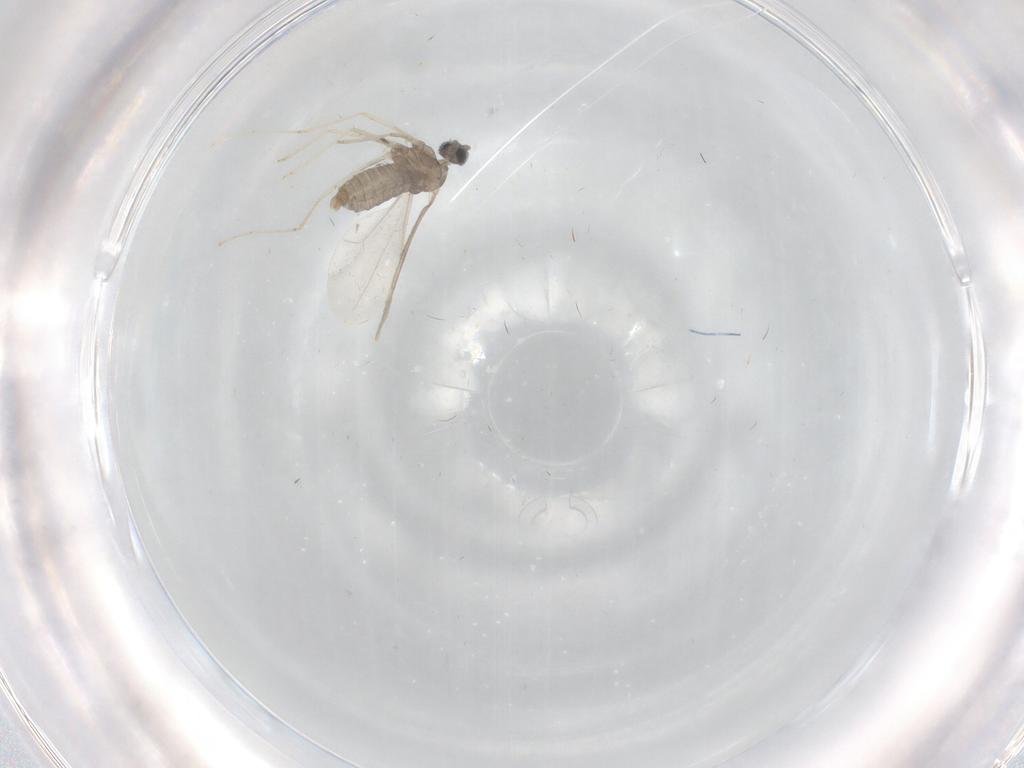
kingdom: Animalia
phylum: Arthropoda
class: Insecta
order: Diptera
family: Cecidomyiidae
